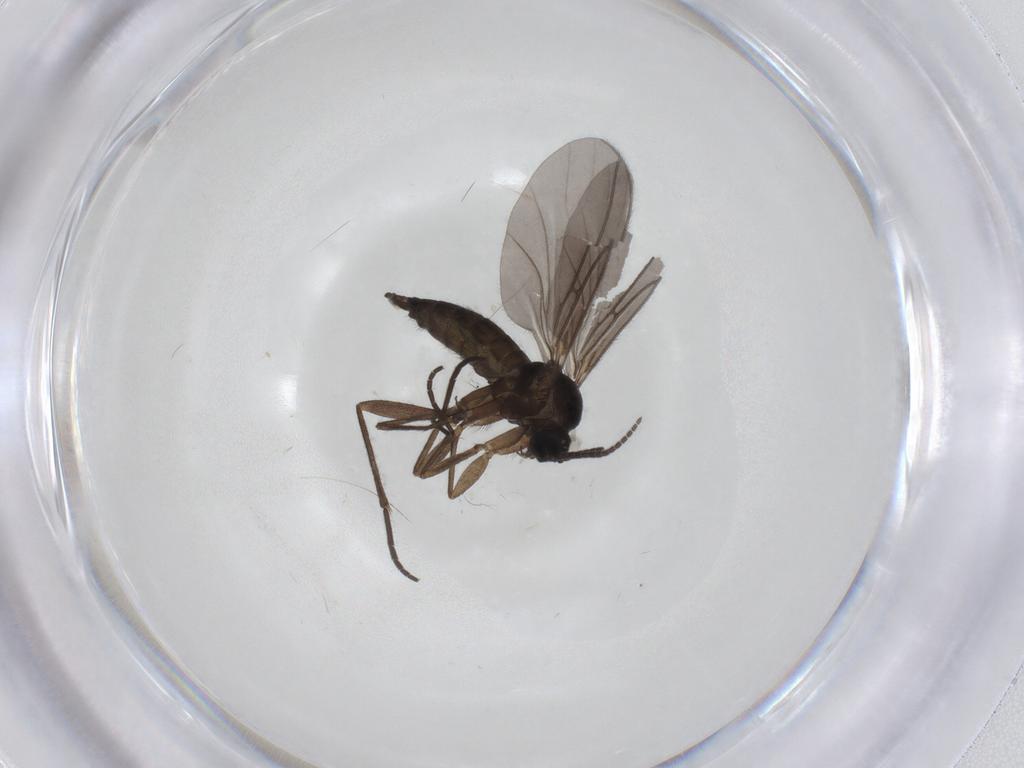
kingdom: Animalia
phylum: Arthropoda
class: Insecta
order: Diptera
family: Sciaridae
